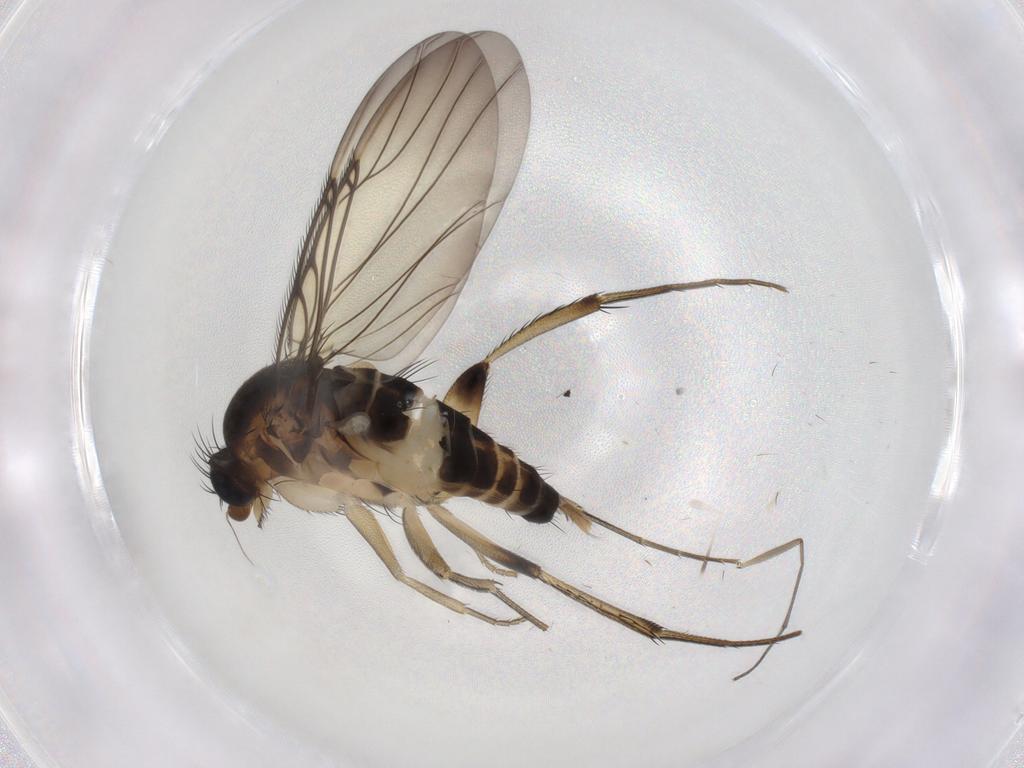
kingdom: Animalia
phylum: Arthropoda
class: Insecta
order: Diptera
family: Phoridae
